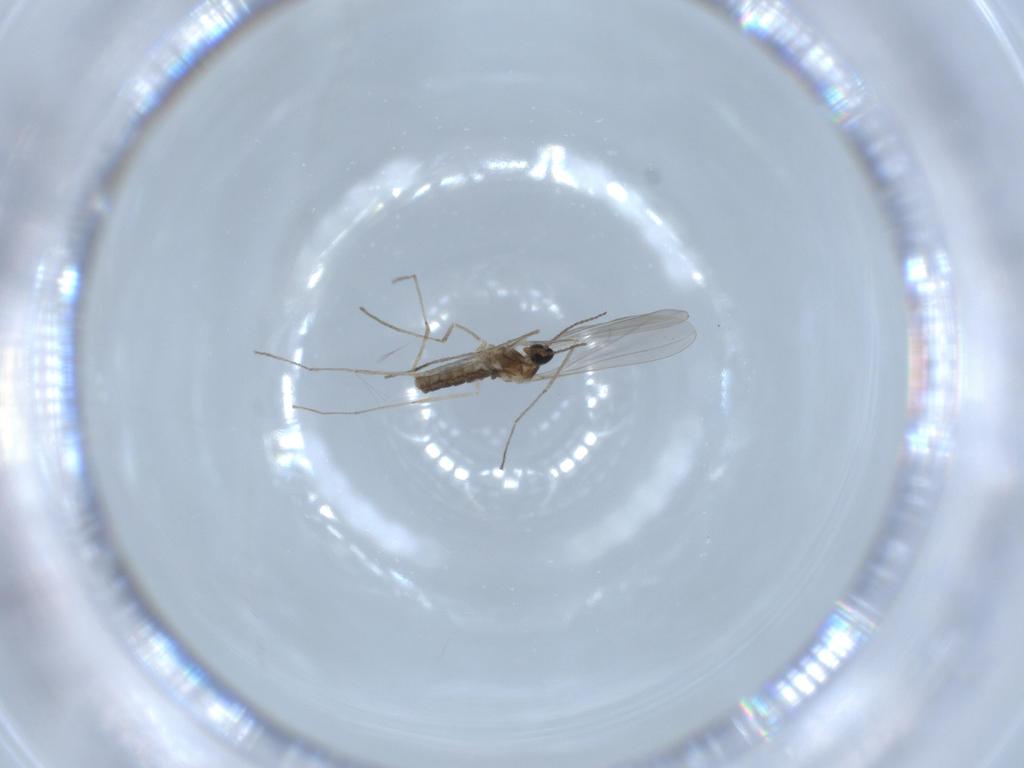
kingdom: Animalia
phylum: Arthropoda
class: Insecta
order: Diptera
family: Cecidomyiidae
